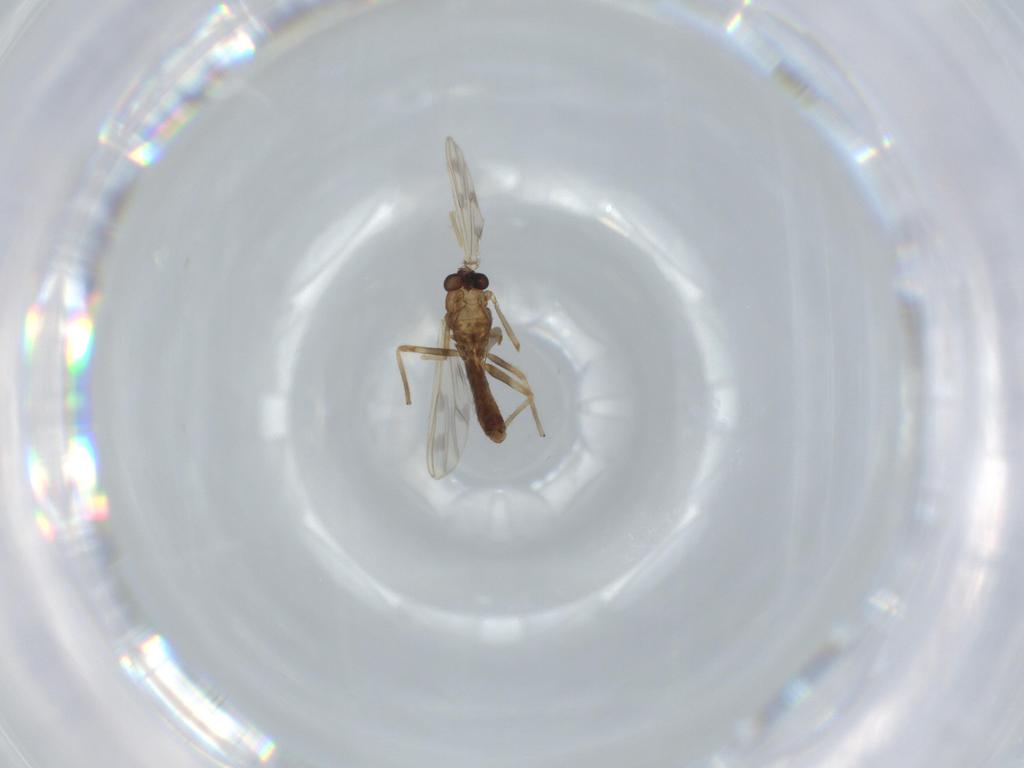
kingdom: Animalia
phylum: Arthropoda
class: Insecta
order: Diptera
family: Chironomidae
